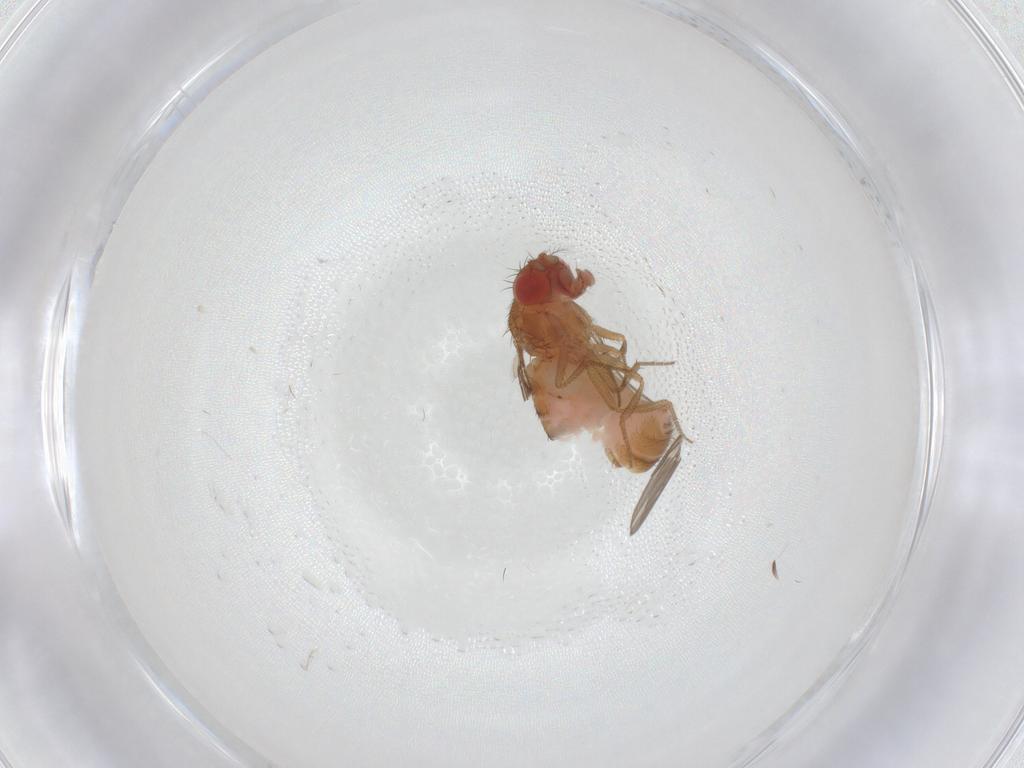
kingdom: Animalia
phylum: Arthropoda
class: Insecta
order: Diptera
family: Drosophilidae
